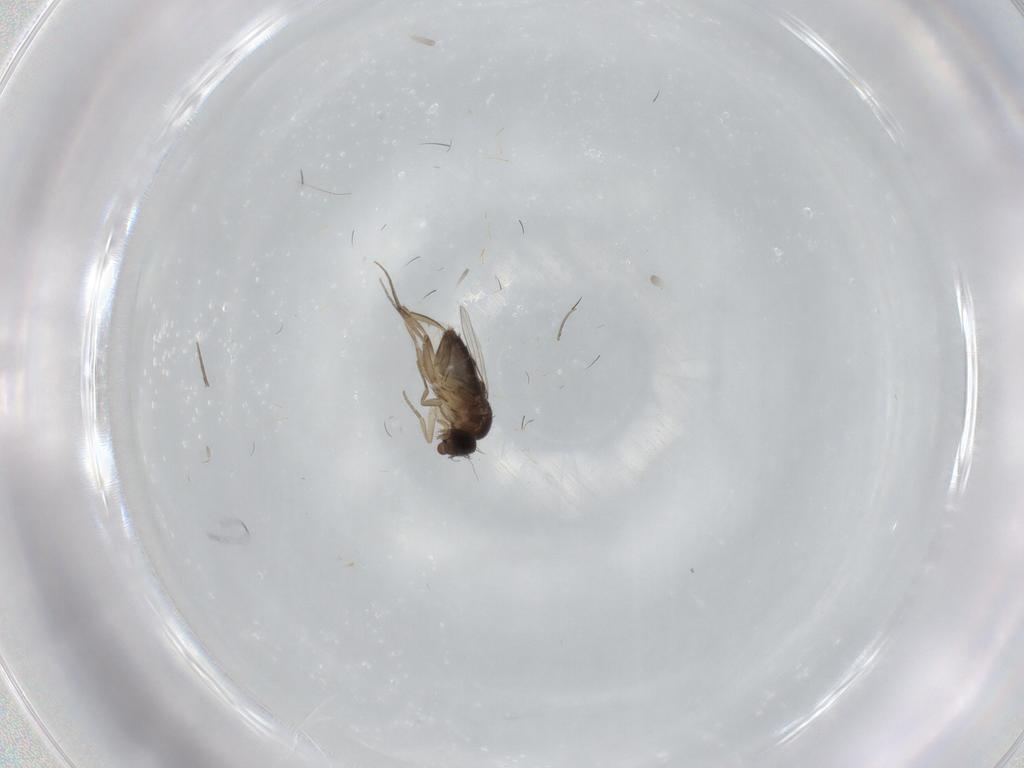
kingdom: Animalia
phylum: Arthropoda
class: Insecta
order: Diptera
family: Phoridae
